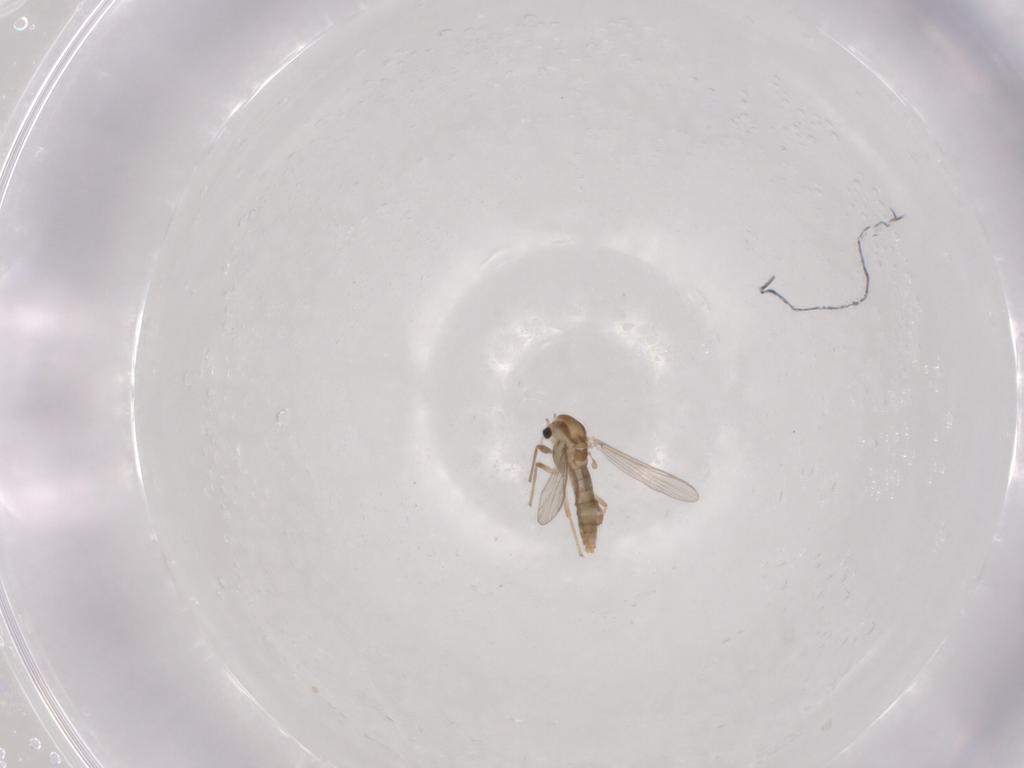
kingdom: Animalia
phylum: Arthropoda
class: Insecta
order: Diptera
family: Chironomidae
